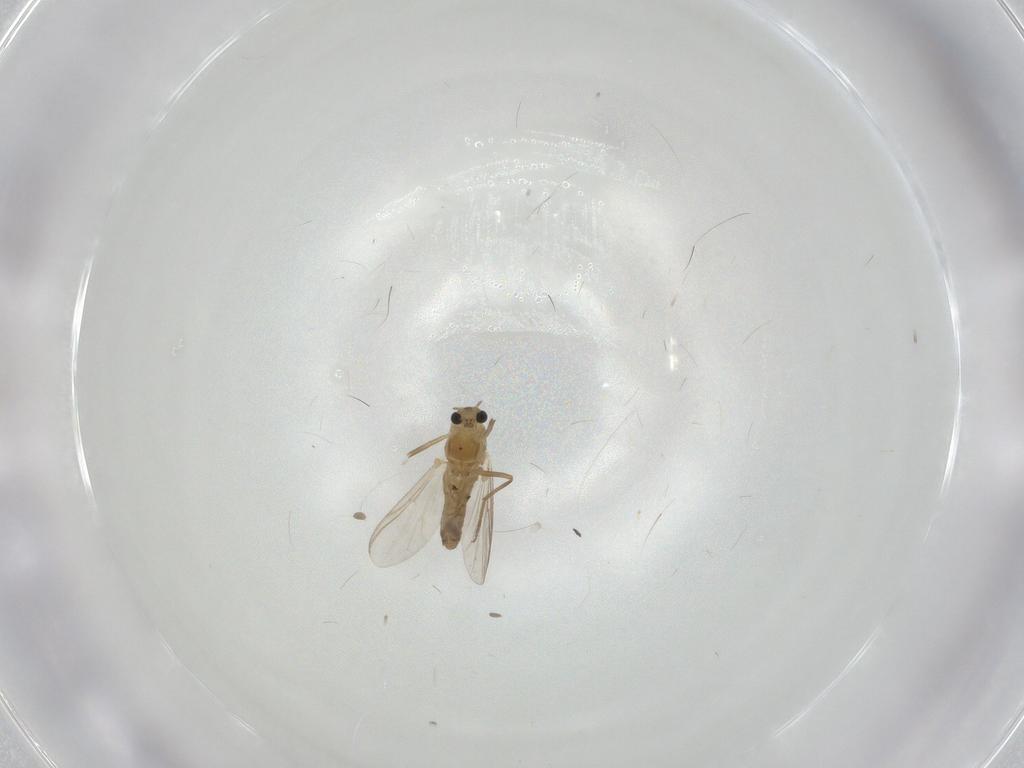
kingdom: Animalia
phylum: Arthropoda
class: Insecta
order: Diptera
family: Chironomidae
